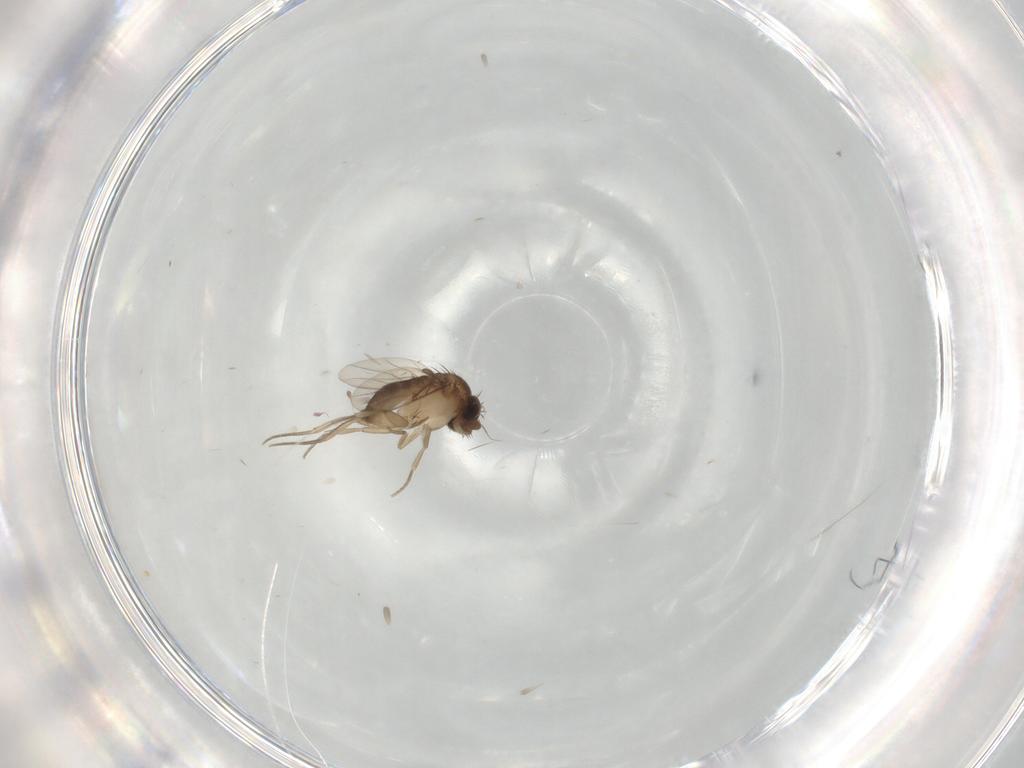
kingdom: Animalia
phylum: Arthropoda
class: Insecta
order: Diptera
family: Phoridae
